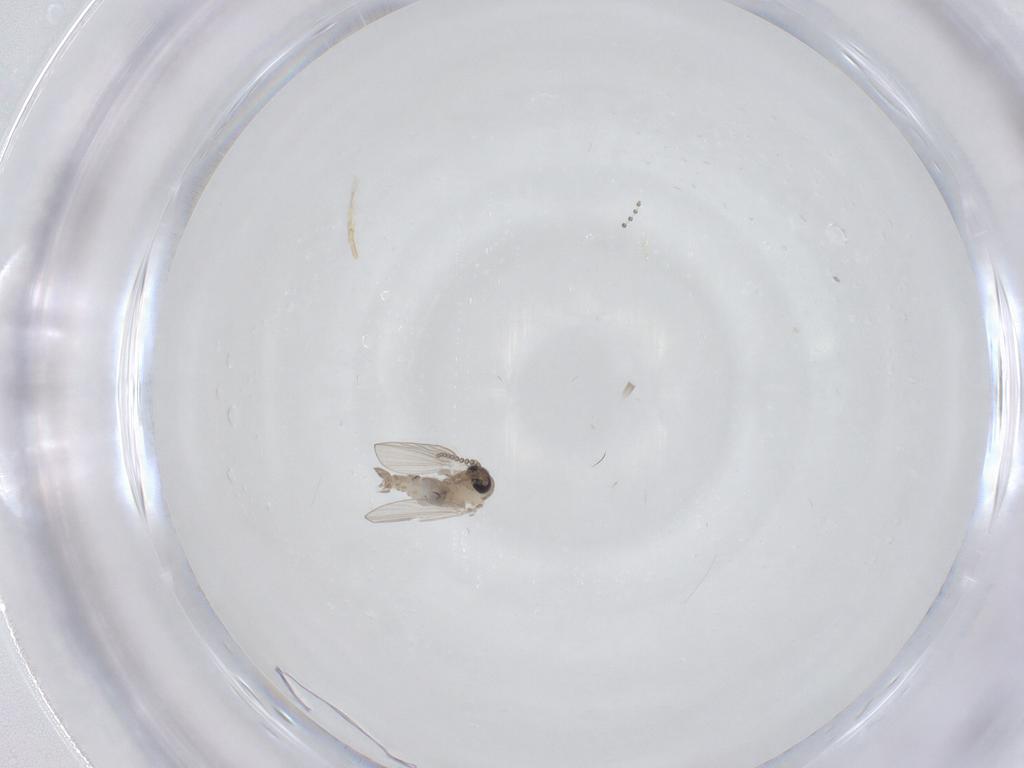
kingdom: Animalia
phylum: Arthropoda
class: Insecta
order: Diptera
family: Psychodidae
